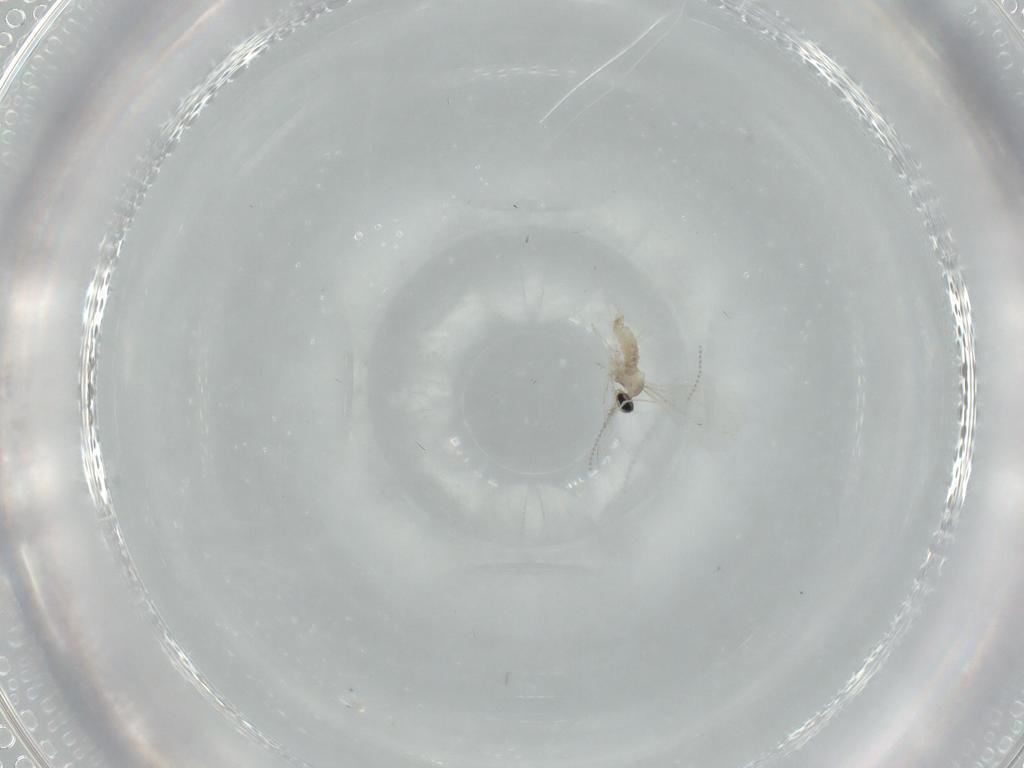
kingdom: Animalia
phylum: Arthropoda
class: Insecta
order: Diptera
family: Cecidomyiidae
